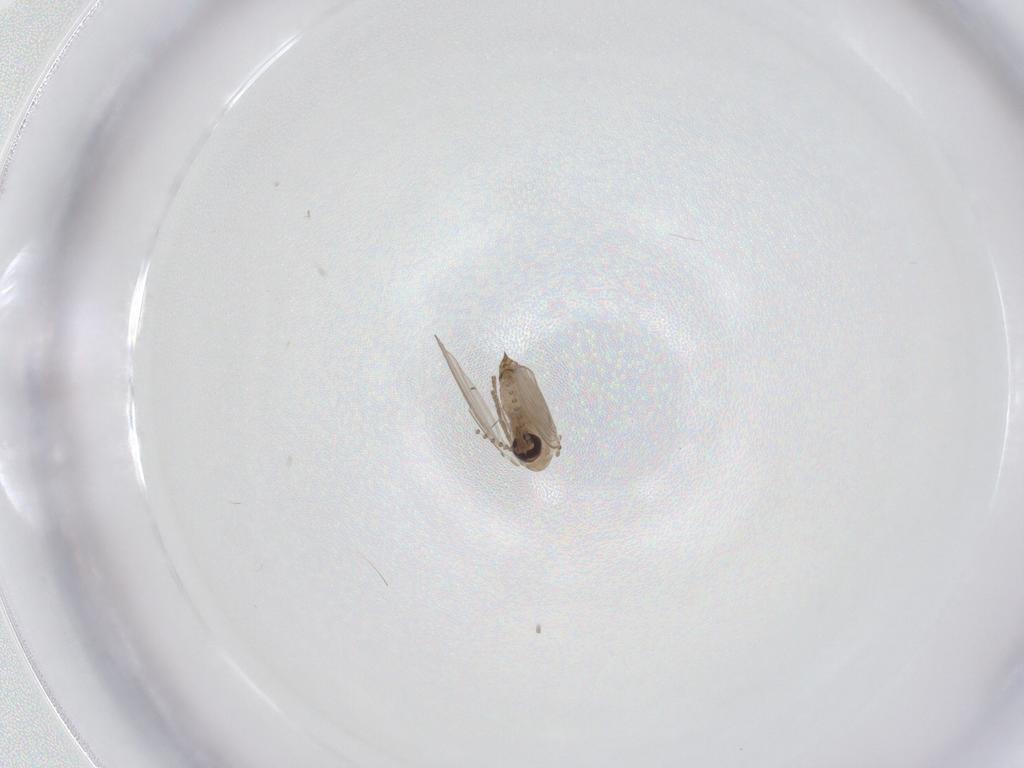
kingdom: Animalia
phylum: Arthropoda
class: Insecta
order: Diptera
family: Psychodidae
